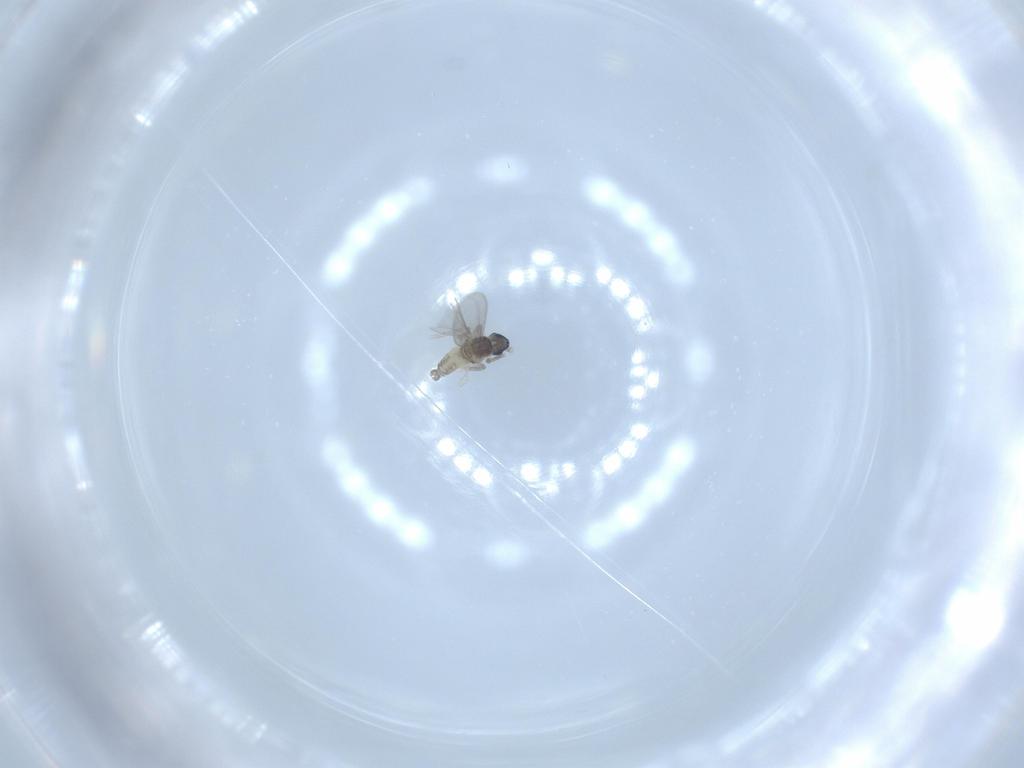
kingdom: Animalia
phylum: Arthropoda
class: Insecta
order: Diptera
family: Cecidomyiidae
